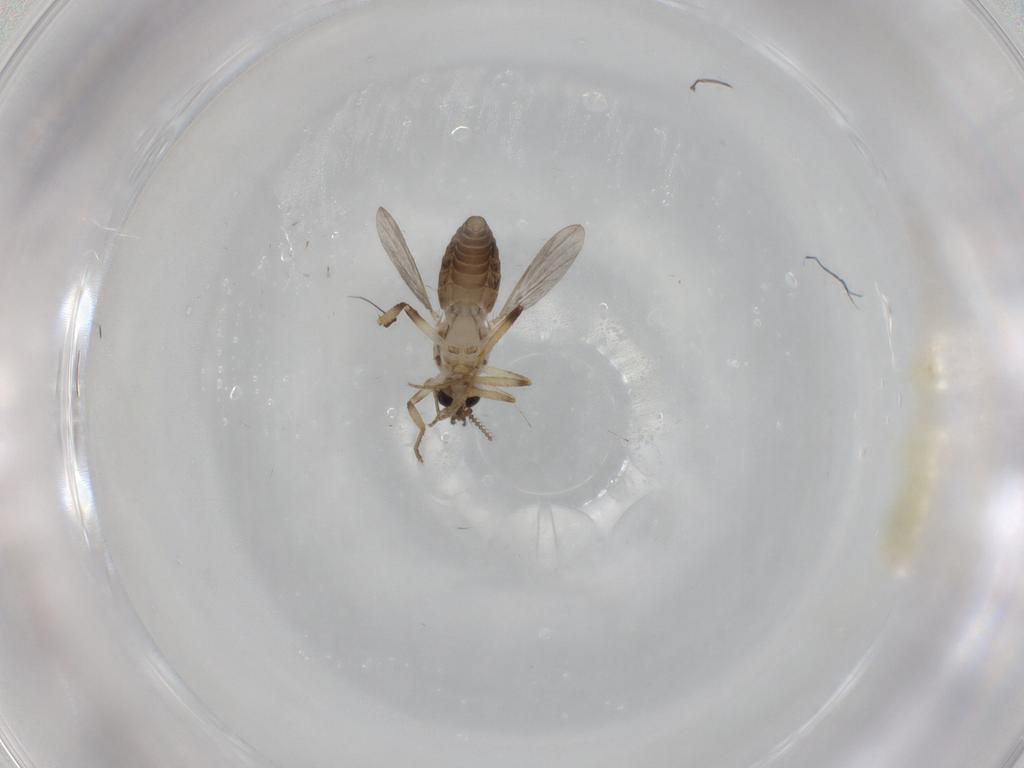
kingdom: Animalia
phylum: Arthropoda
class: Insecta
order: Diptera
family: Ceratopogonidae
